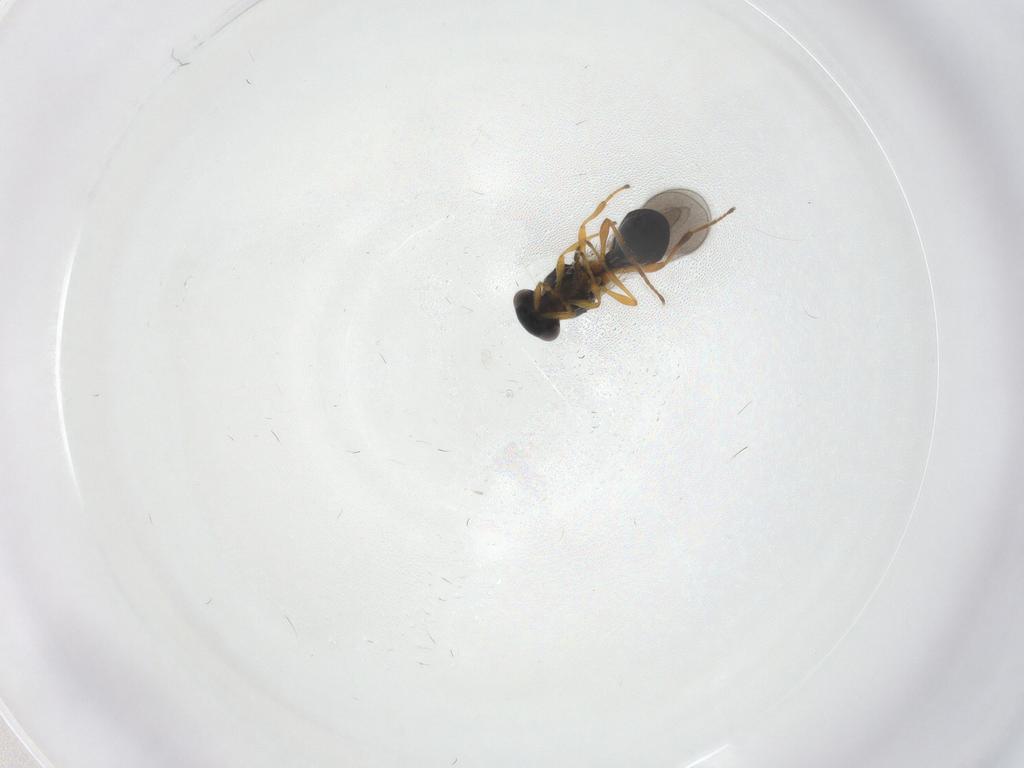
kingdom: Animalia
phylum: Arthropoda
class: Insecta
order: Hymenoptera
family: Platygastridae
